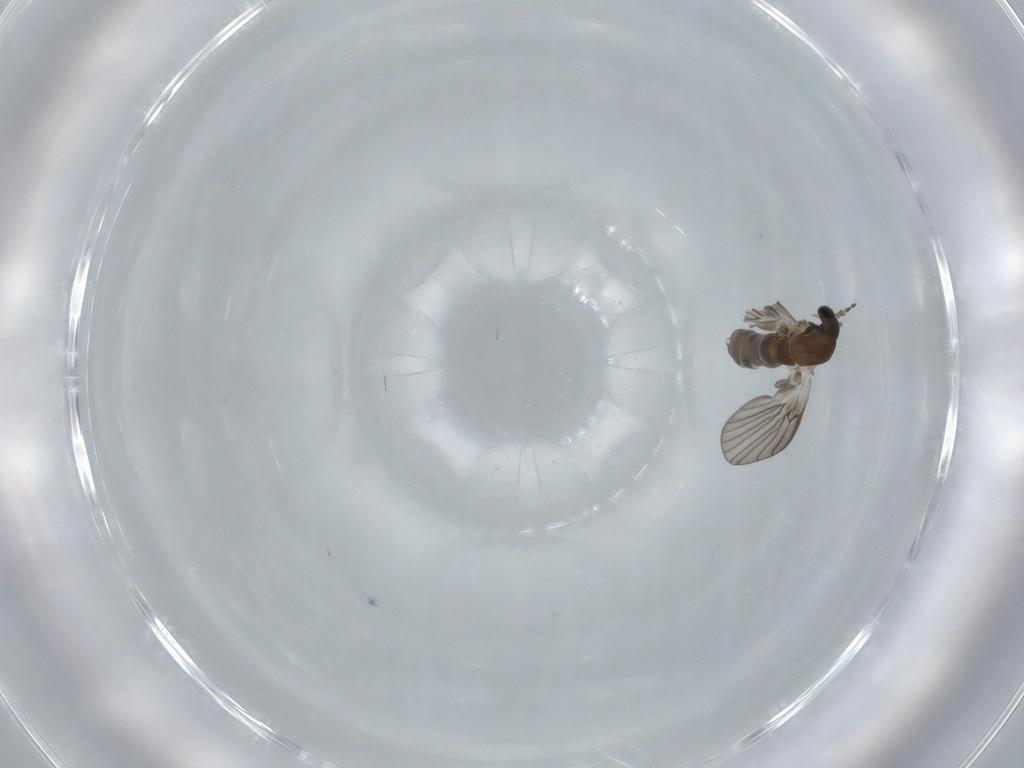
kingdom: Animalia
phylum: Arthropoda
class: Insecta
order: Diptera
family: Psychodidae
